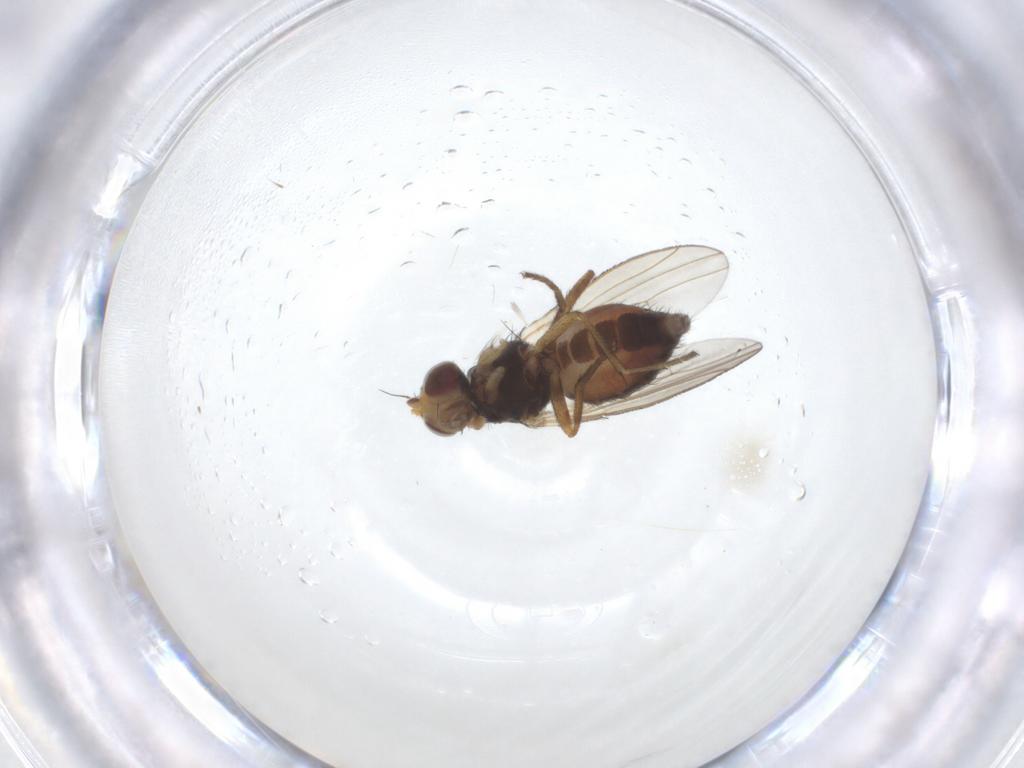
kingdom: Animalia
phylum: Arthropoda
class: Insecta
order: Diptera
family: Heleomyzidae
